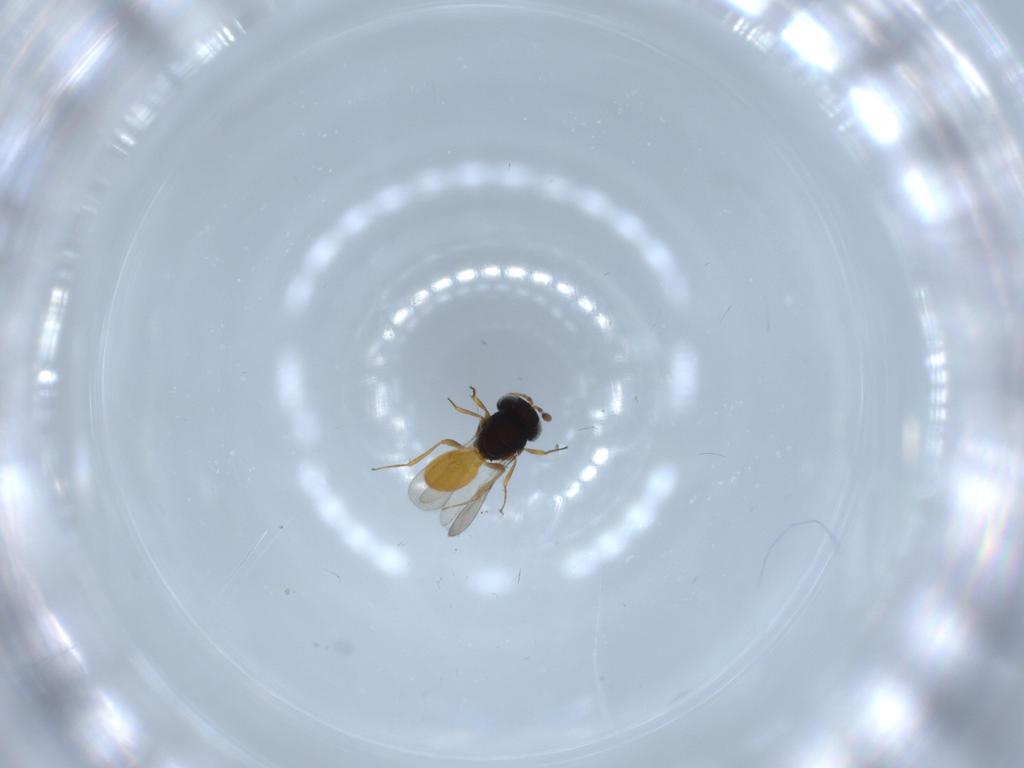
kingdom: Animalia
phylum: Arthropoda
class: Insecta
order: Hymenoptera
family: Scelionidae
